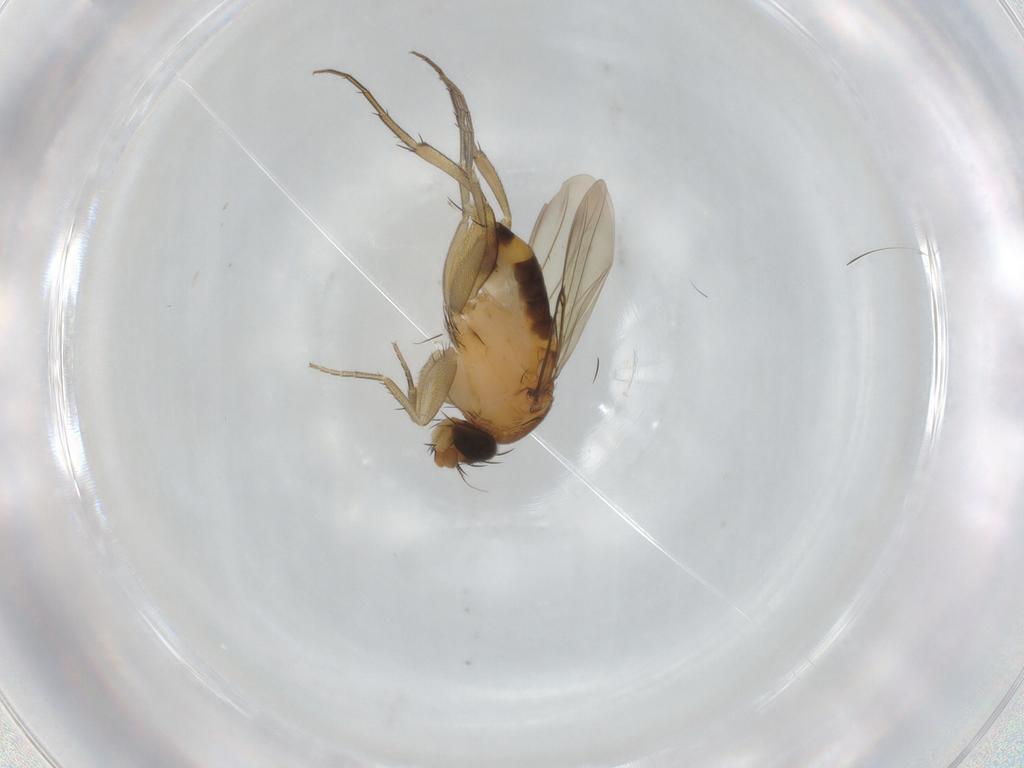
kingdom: Animalia
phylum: Arthropoda
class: Insecta
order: Diptera
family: Phoridae
